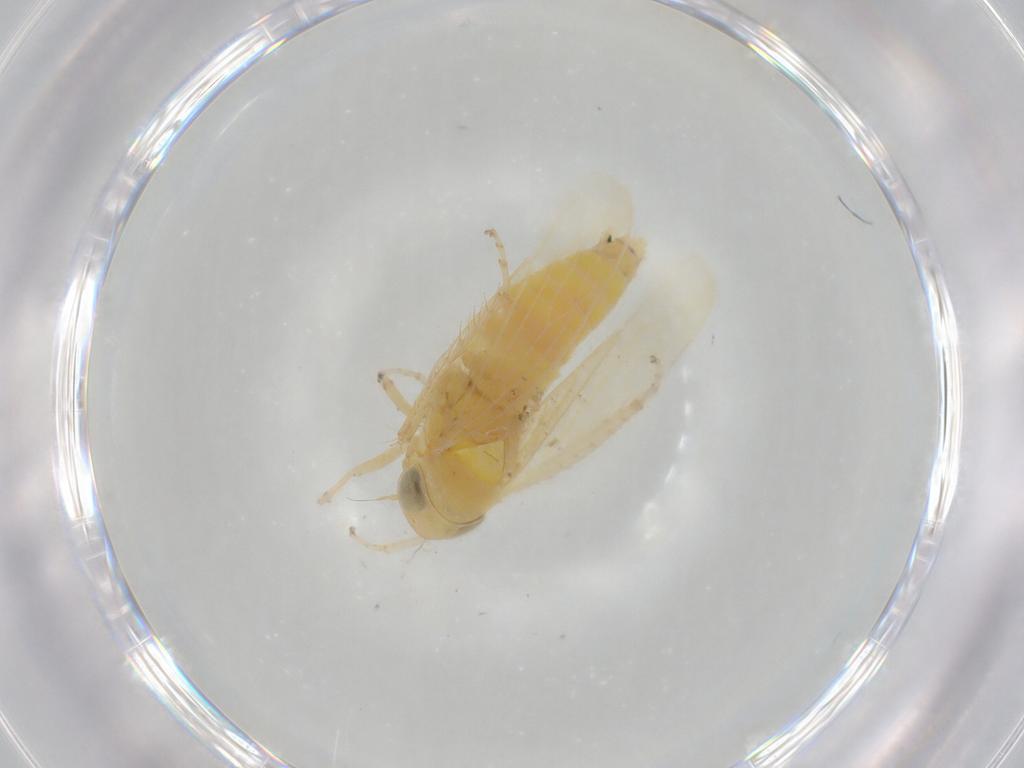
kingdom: Animalia
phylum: Arthropoda
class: Insecta
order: Hemiptera
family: Cicadellidae
